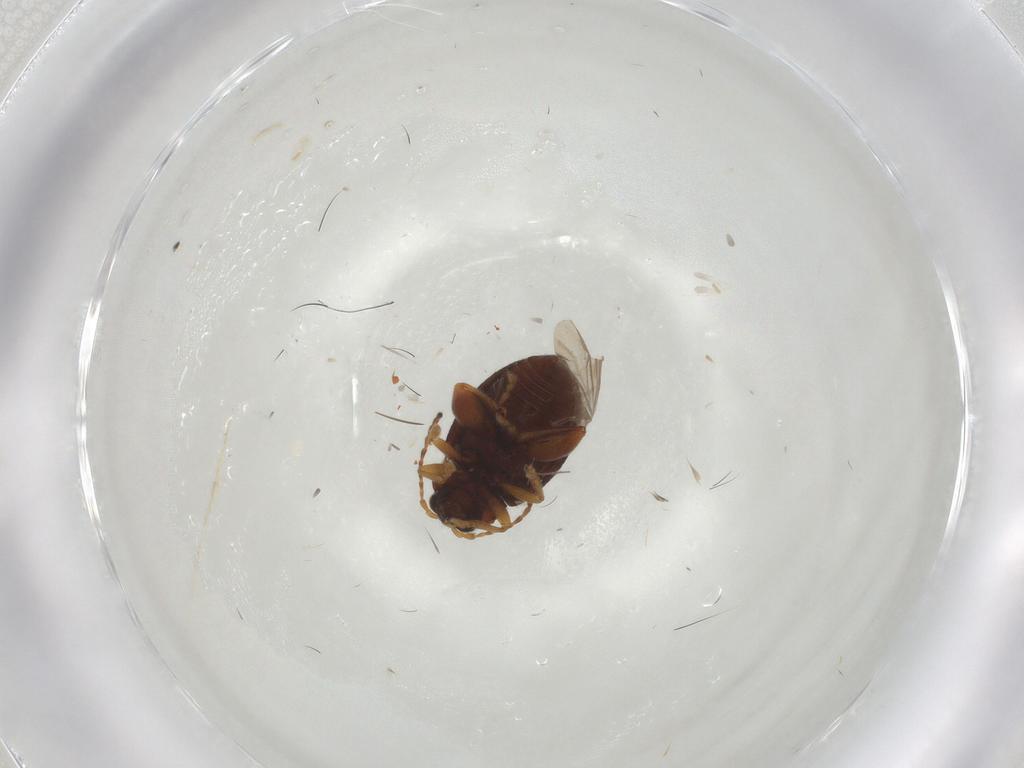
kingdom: Animalia
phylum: Arthropoda
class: Insecta
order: Coleoptera
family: Chrysomelidae
